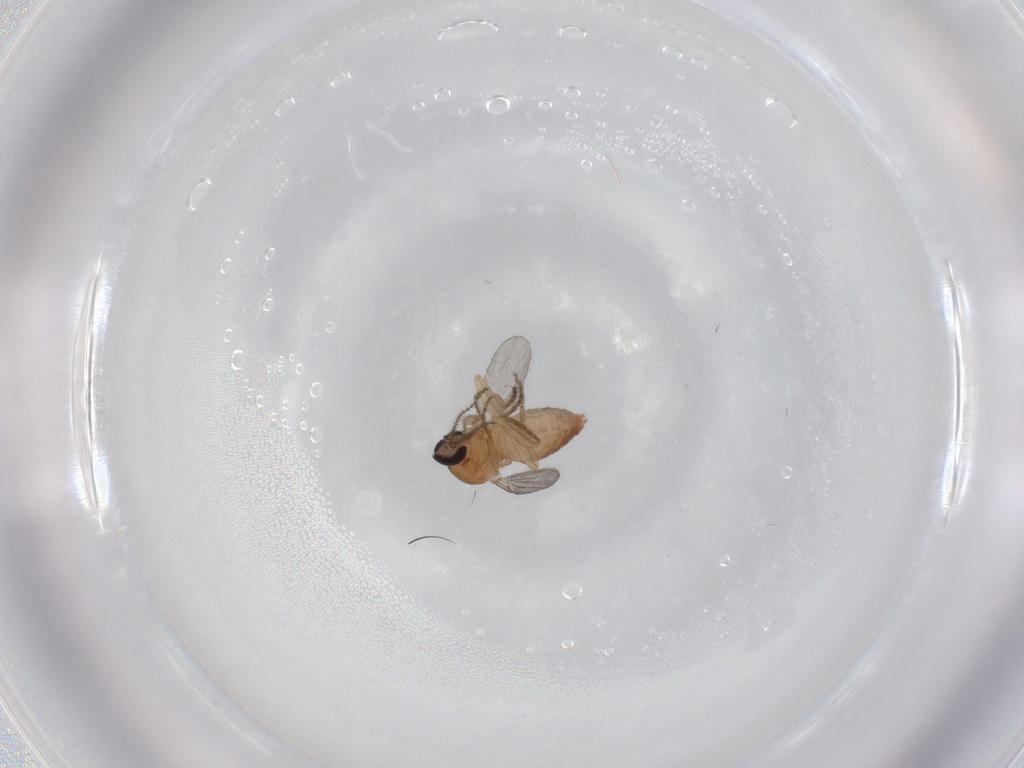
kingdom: Animalia
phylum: Arthropoda
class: Insecta
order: Diptera
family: Ceratopogonidae
